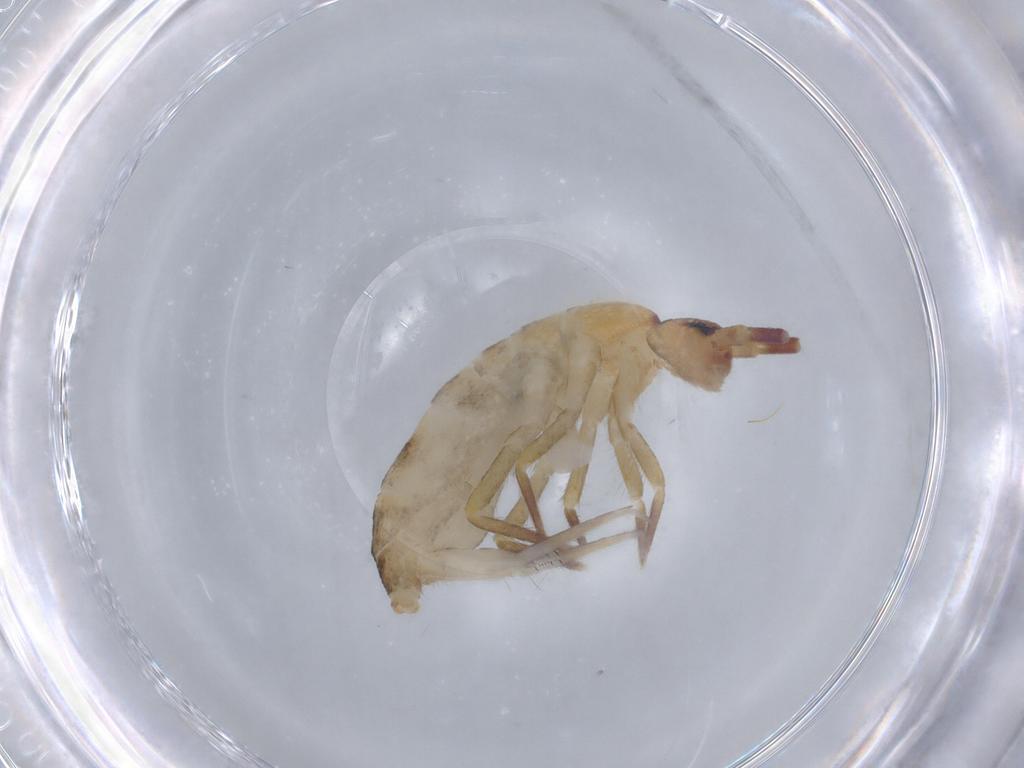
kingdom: Animalia
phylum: Arthropoda
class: Collembola
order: Entomobryomorpha
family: Tomoceridae
